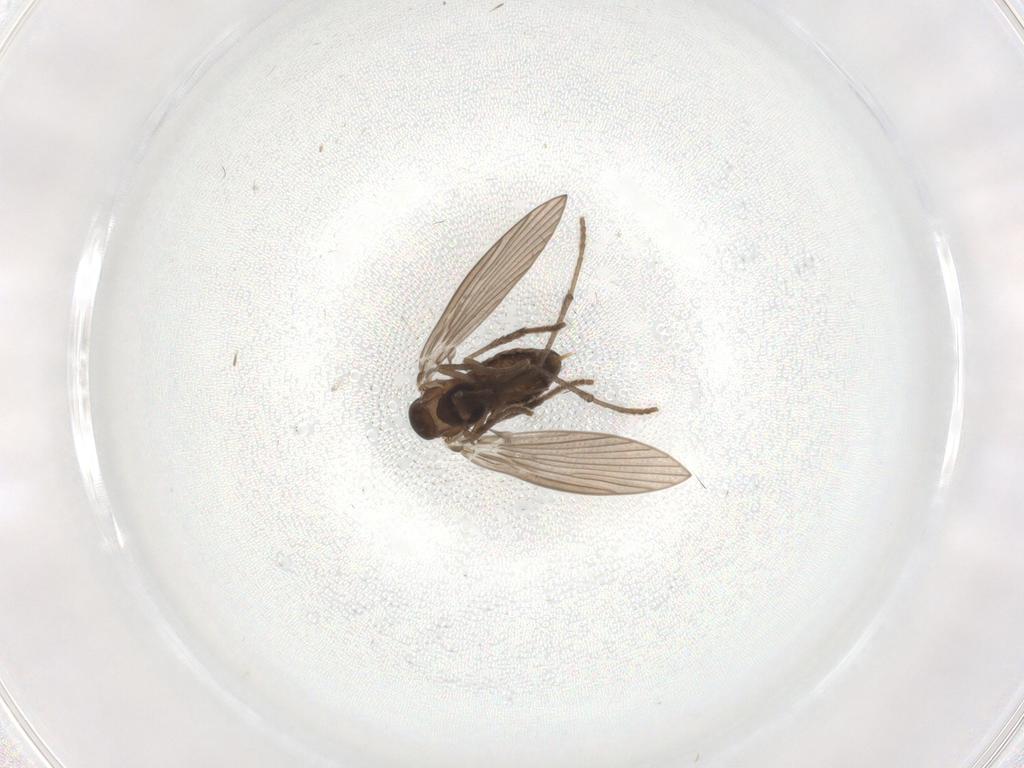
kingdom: Animalia
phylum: Arthropoda
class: Insecta
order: Diptera
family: Psychodidae
